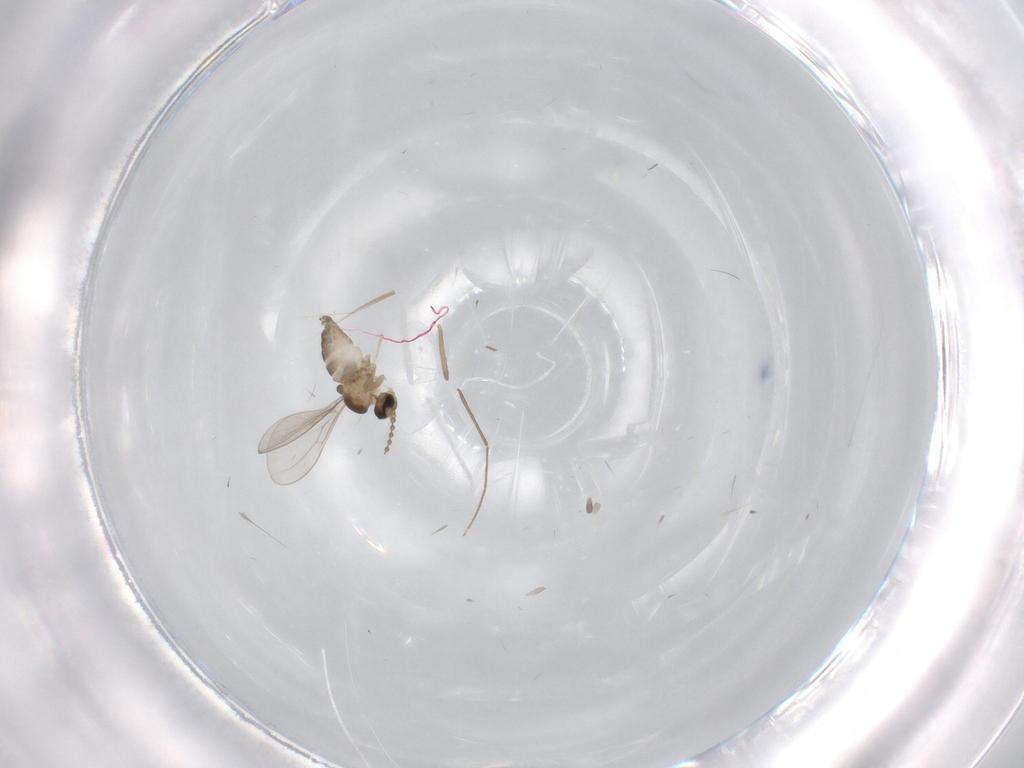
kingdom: Animalia
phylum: Arthropoda
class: Insecta
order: Diptera
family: Cecidomyiidae
